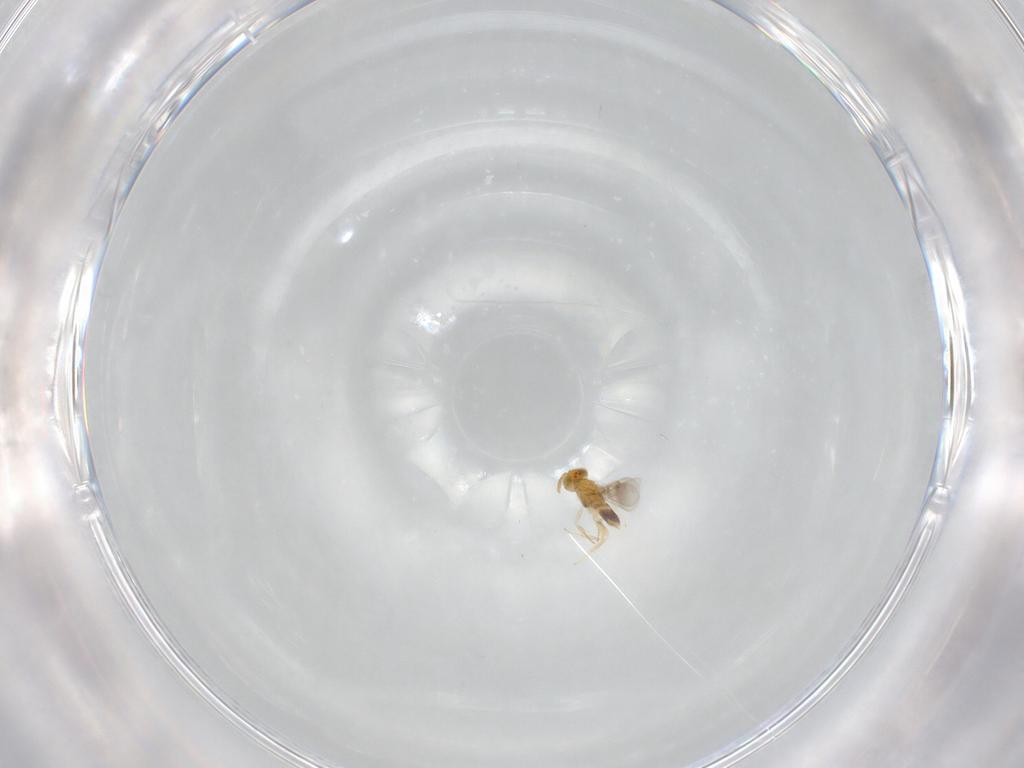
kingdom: Animalia
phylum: Arthropoda
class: Insecta
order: Hymenoptera
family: Aphelinidae
